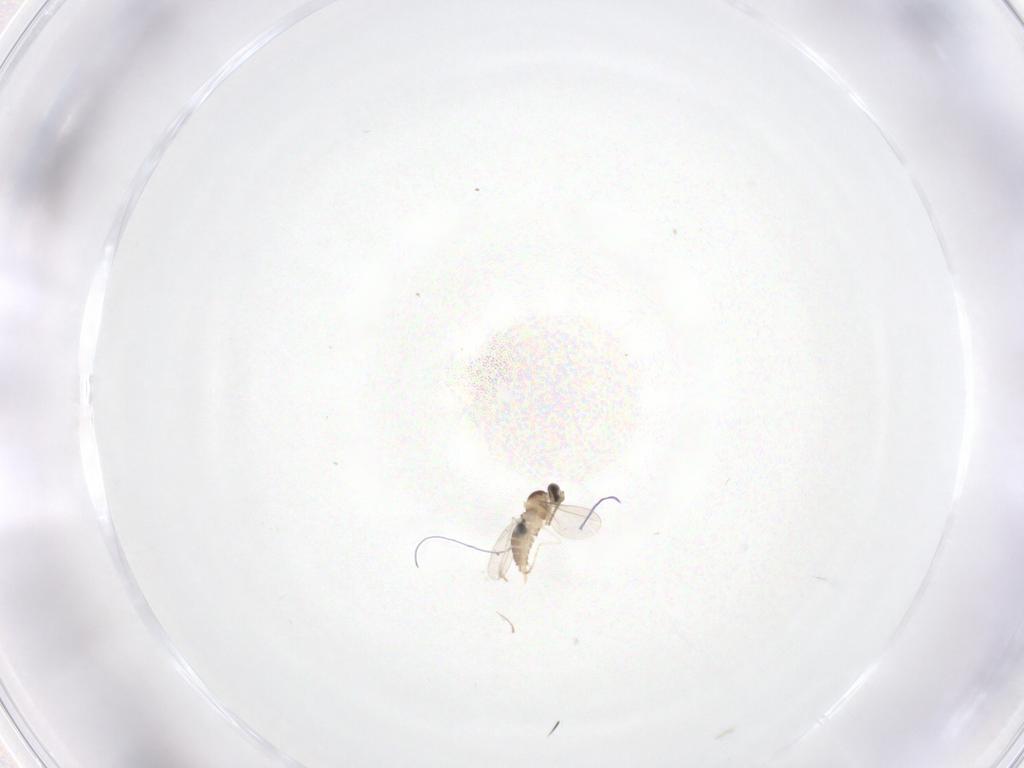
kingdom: Animalia
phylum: Arthropoda
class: Insecta
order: Diptera
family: Cecidomyiidae
